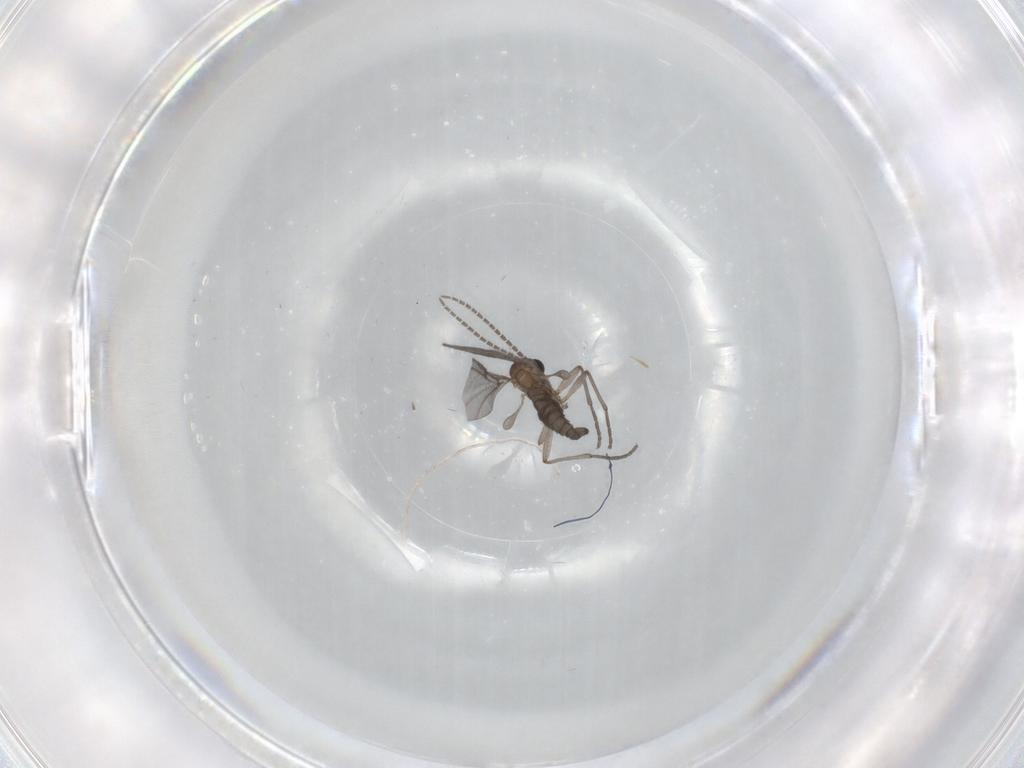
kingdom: Animalia
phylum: Arthropoda
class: Insecta
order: Diptera
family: Sciaridae
